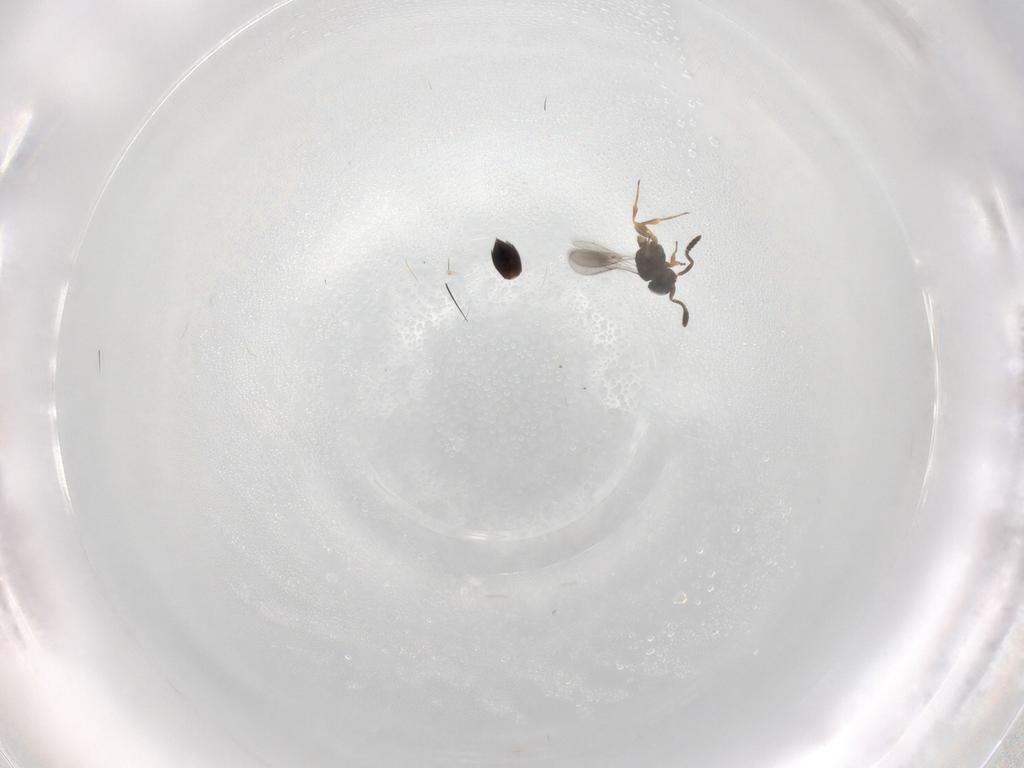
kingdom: Animalia
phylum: Arthropoda
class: Insecta
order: Hymenoptera
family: Scelionidae
